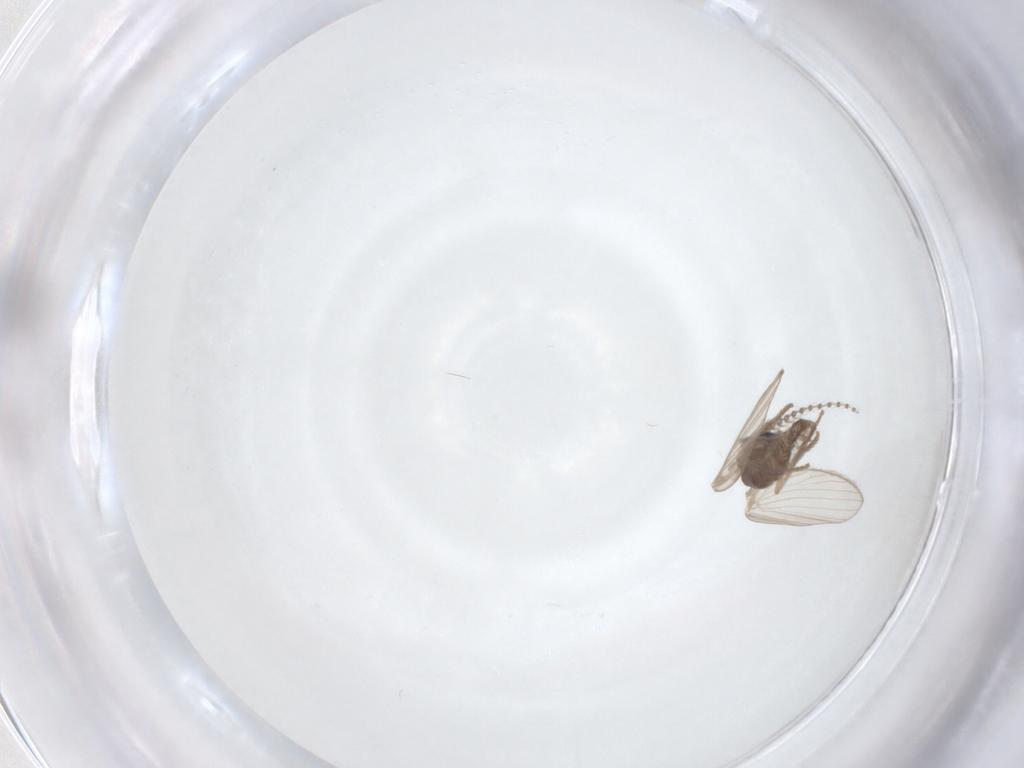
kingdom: Animalia
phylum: Arthropoda
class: Insecta
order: Diptera
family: Psychodidae
